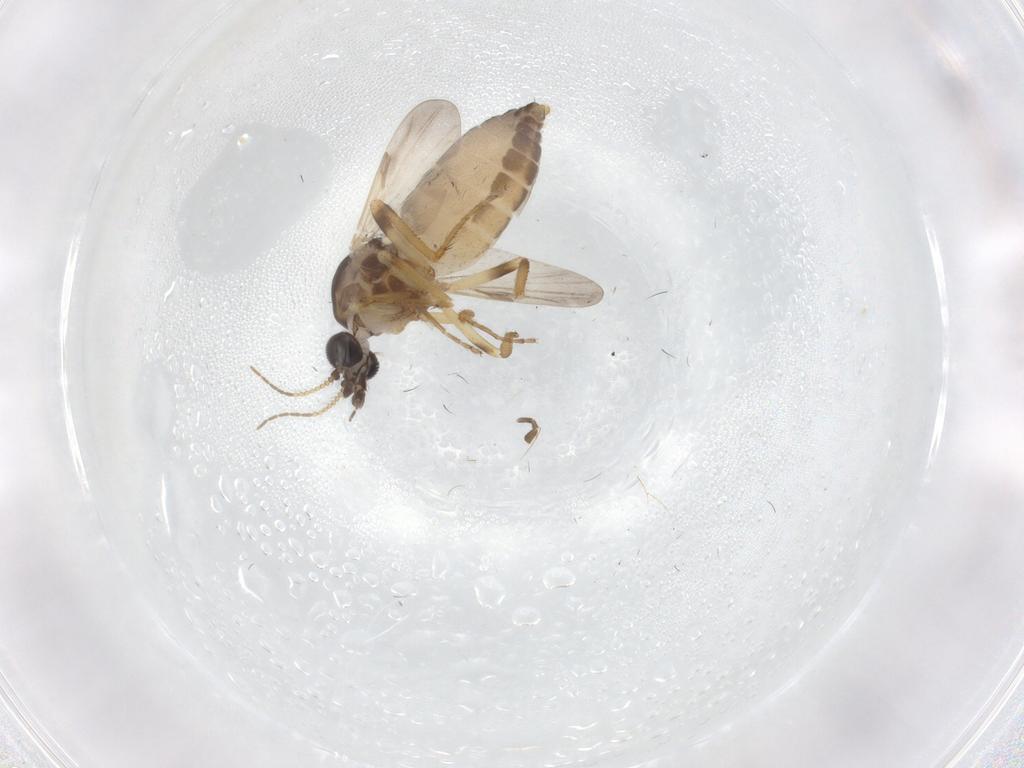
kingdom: Animalia
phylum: Arthropoda
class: Insecta
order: Diptera
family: Ceratopogonidae
